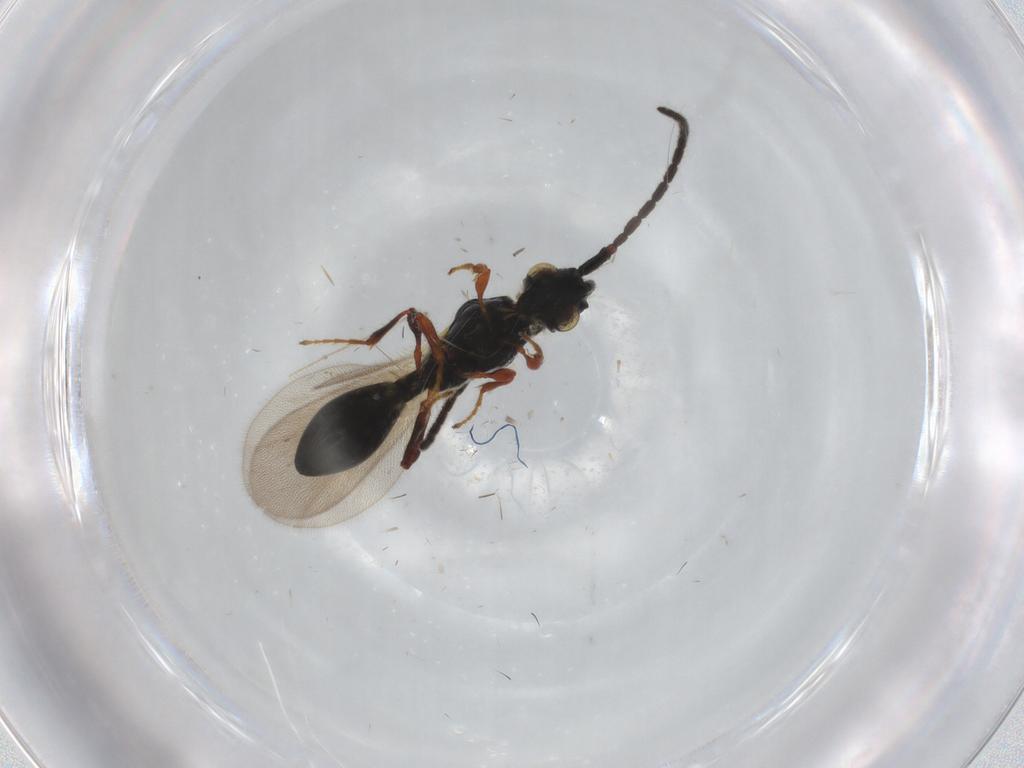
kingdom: Animalia
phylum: Arthropoda
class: Insecta
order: Hymenoptera
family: Diapriidae
